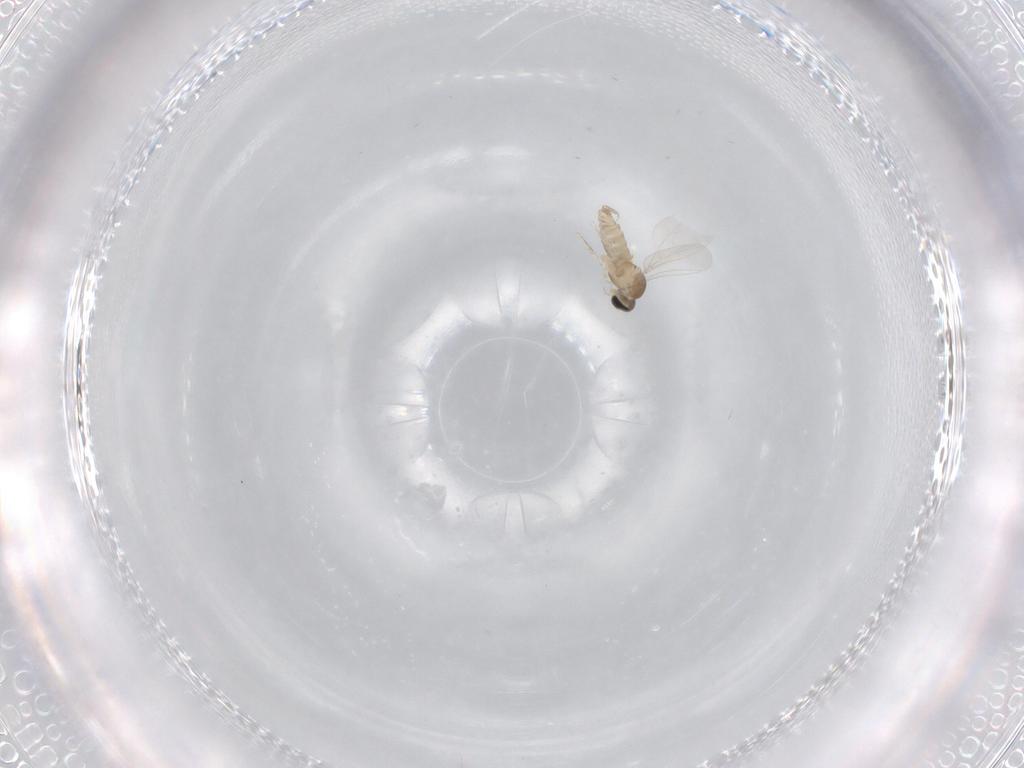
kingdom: Animalia
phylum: Arthropoda
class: Insecta
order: Diptera
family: Cecidomyiidae
